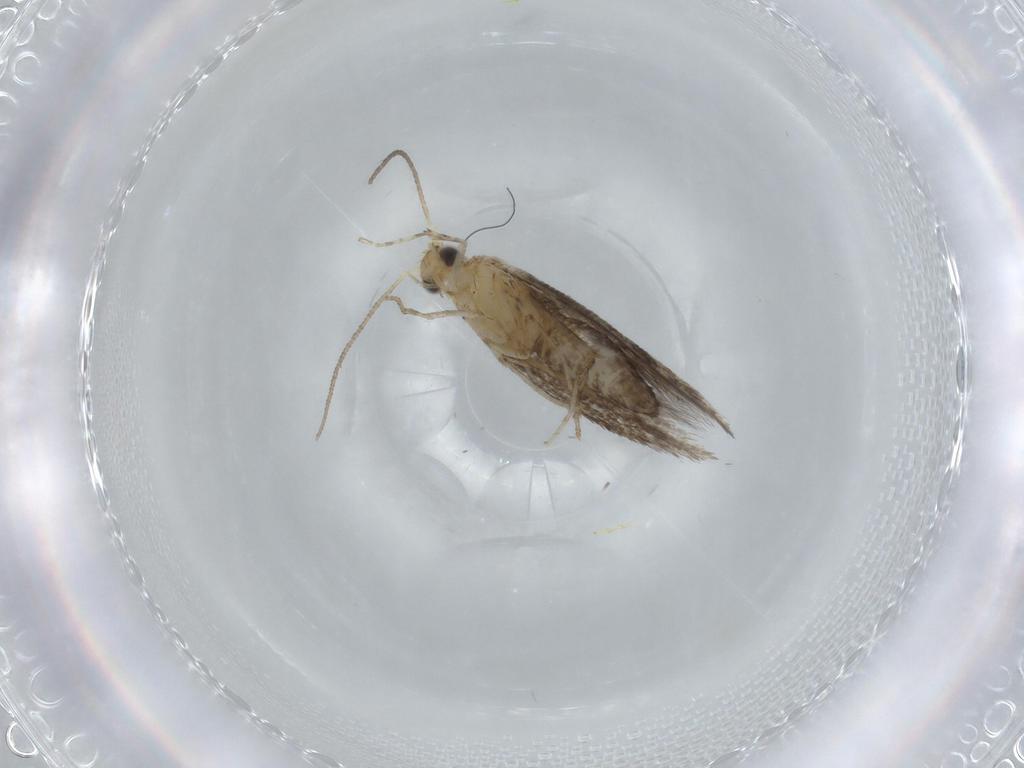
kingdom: Animalia
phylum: Arthropoda
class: Insecta
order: Lepidoptera
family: Argyresthiidae
